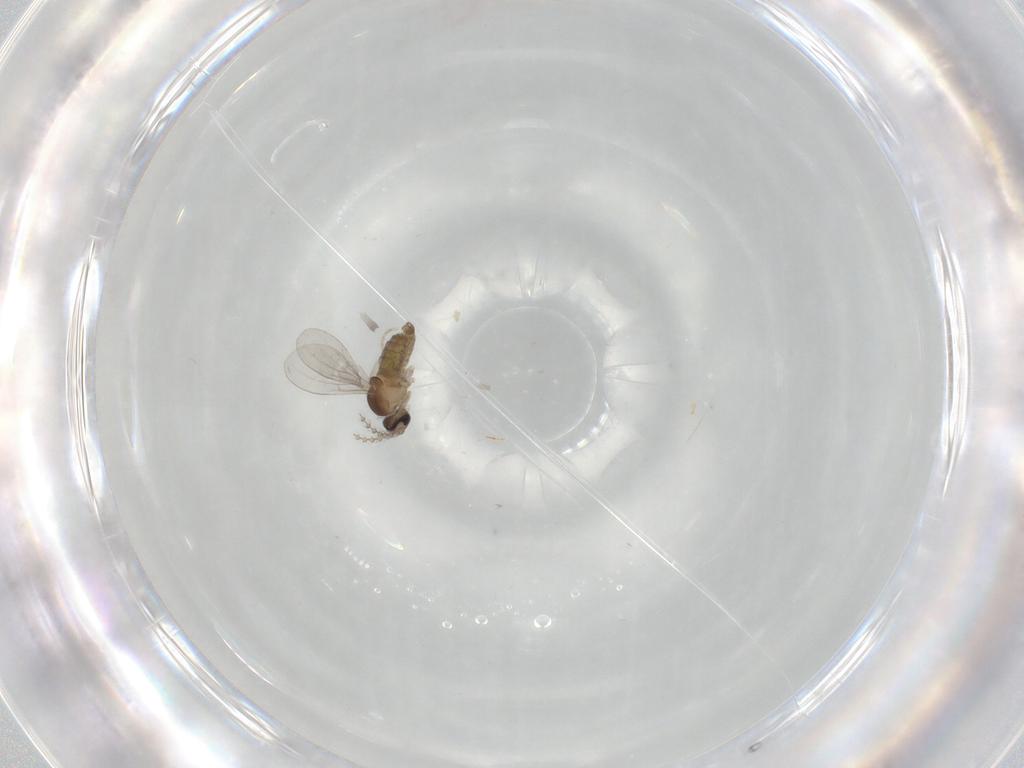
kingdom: Animalia
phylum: Arthropoda
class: Insecta
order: Diptera
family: Cecidomyiidae
